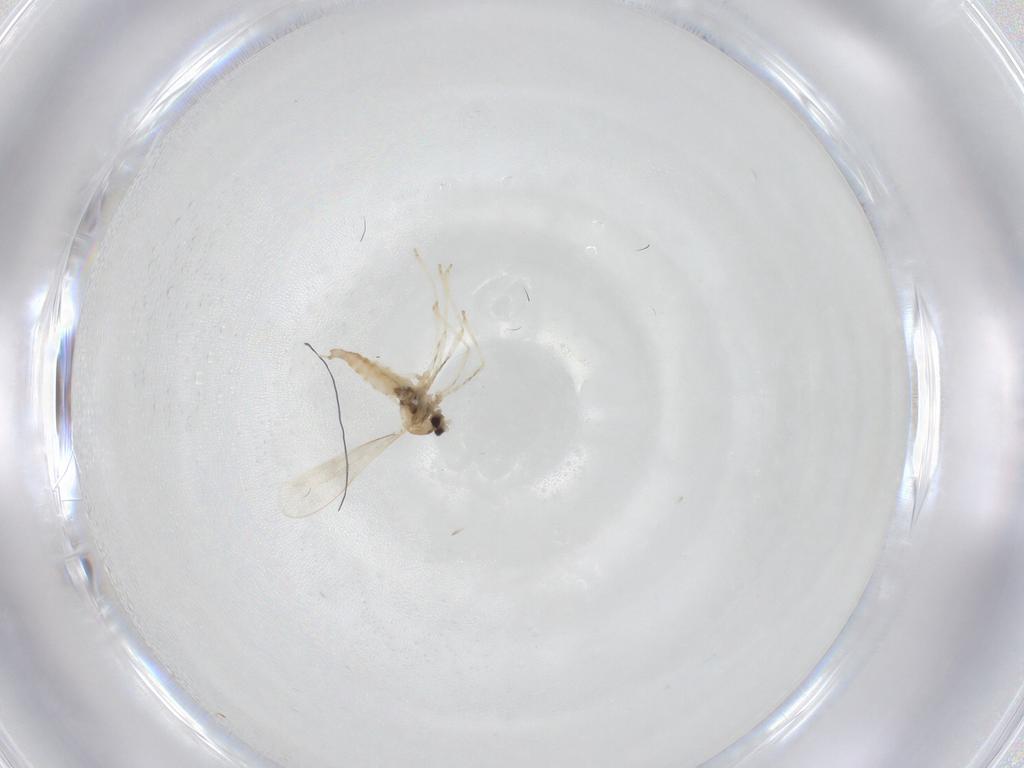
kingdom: Animalia
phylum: Arthropoda
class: Insecta
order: Diptera
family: Cecidomyiidae
